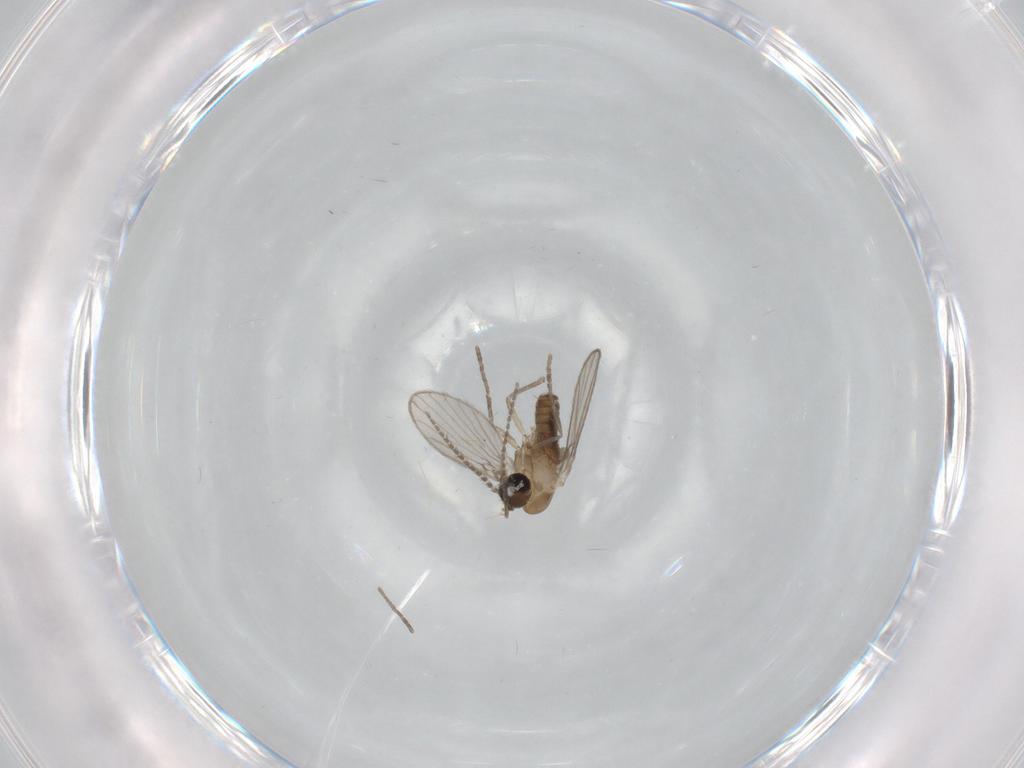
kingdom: Animalia
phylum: Arthropoda
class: Insecta
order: Diptera
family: Psychodidae
